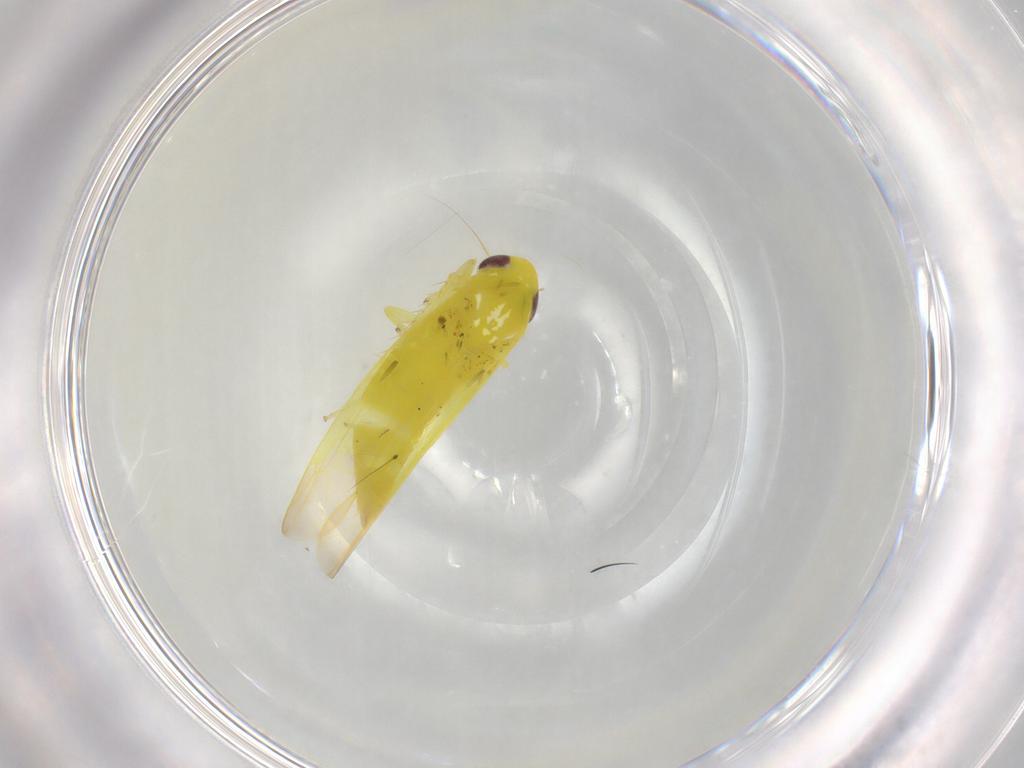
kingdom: Animalia
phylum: Arthropoda
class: Insecta
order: Hemiptera
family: Cicadellidae
